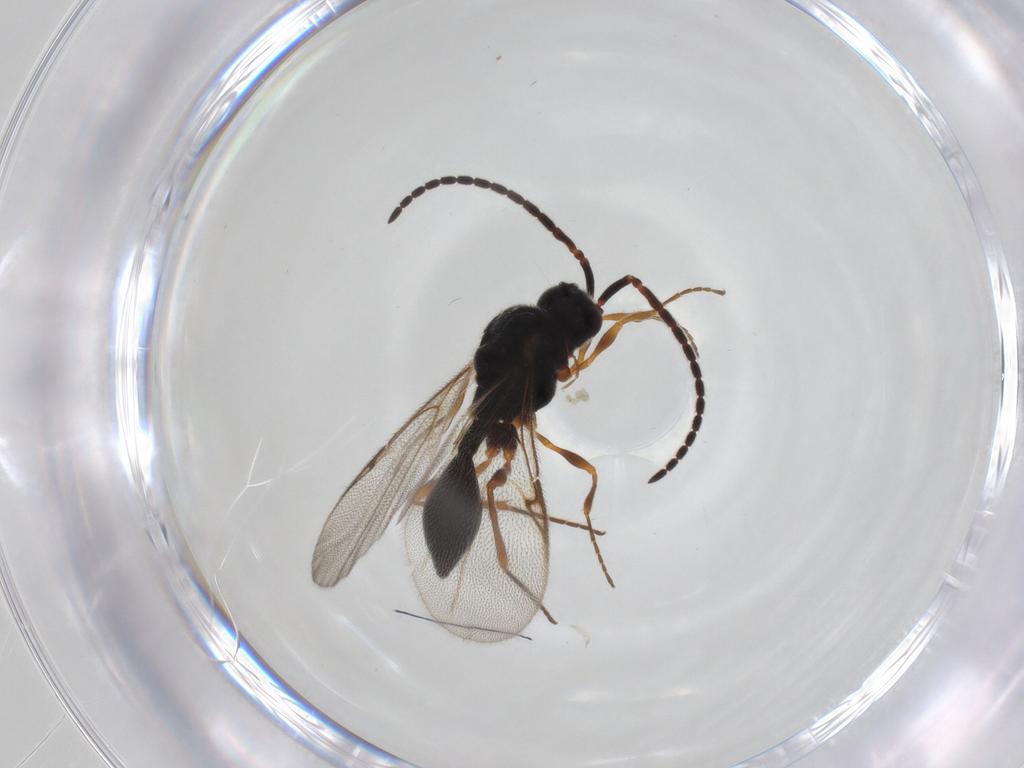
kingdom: Animalia
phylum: Arthropoda
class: Insecta
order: Hymenoptera
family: Diapriidae
